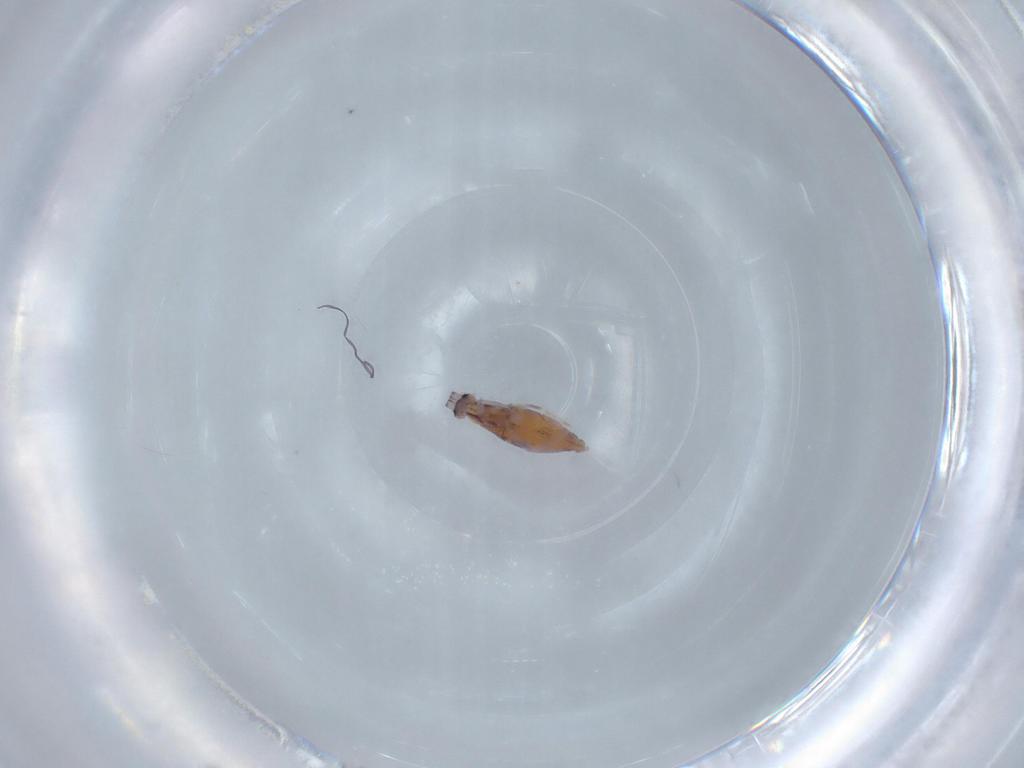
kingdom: Animalia
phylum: Arthropoda
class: Collembola
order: Poduromorpha
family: Hypogastruridae
